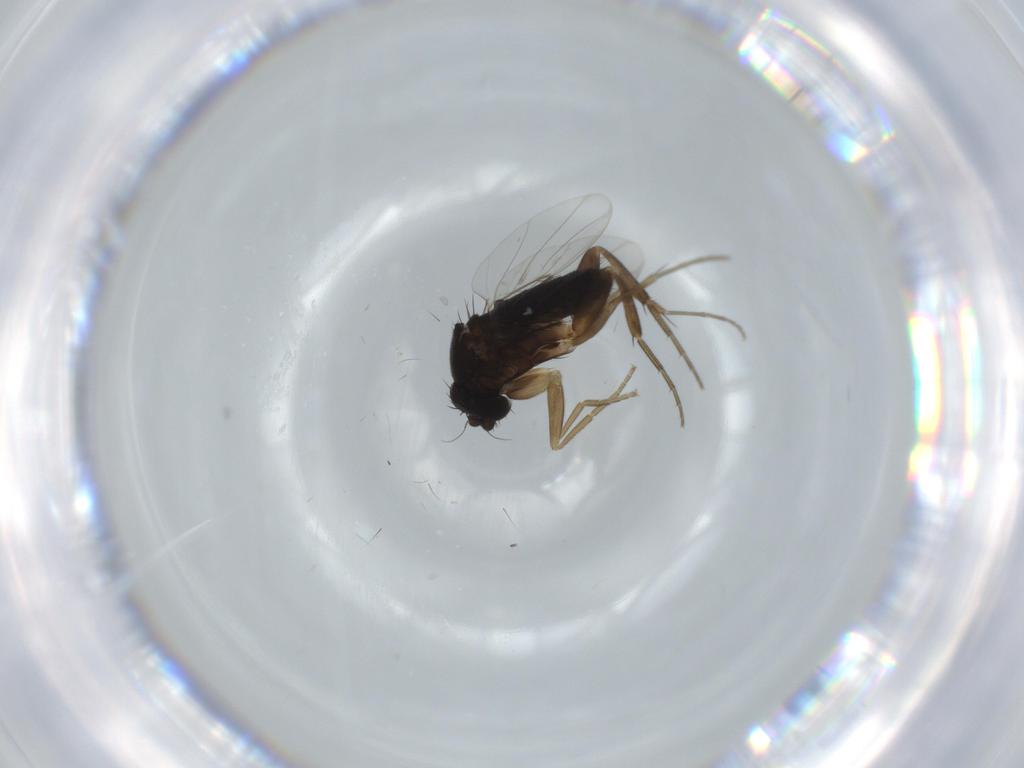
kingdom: Animalia
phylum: Arthropoda
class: Insecta
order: Diptera
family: Phoridae
